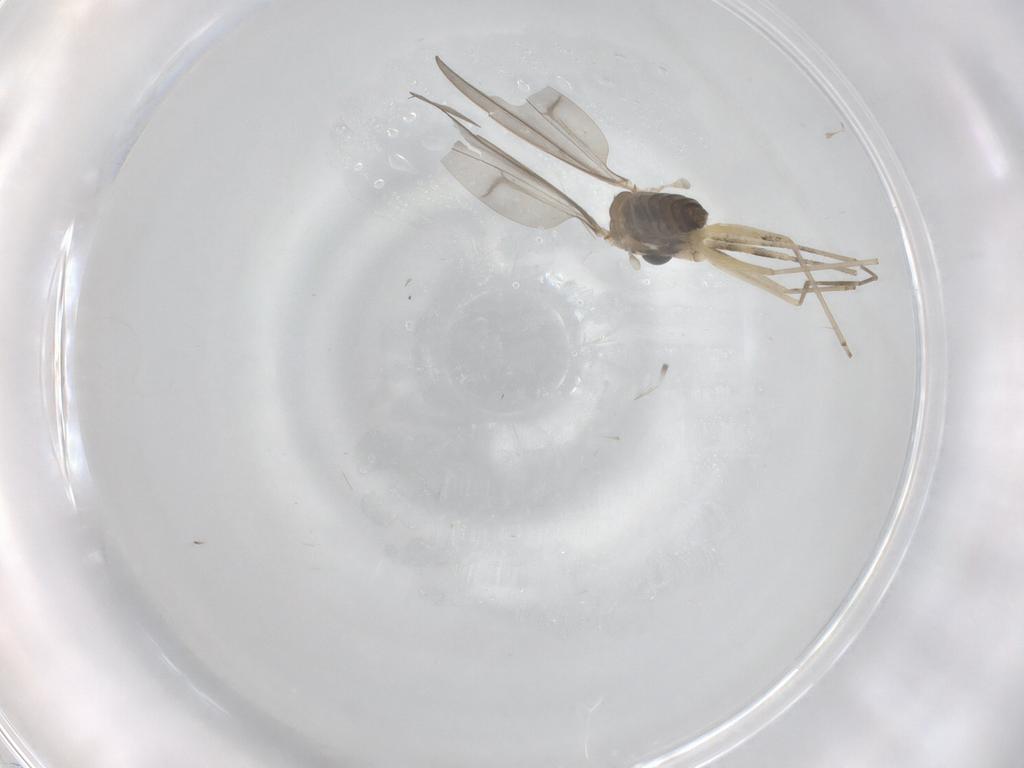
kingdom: Animalia
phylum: Arthropoda
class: Insecta
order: Diptera
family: Cecidomyiidae
